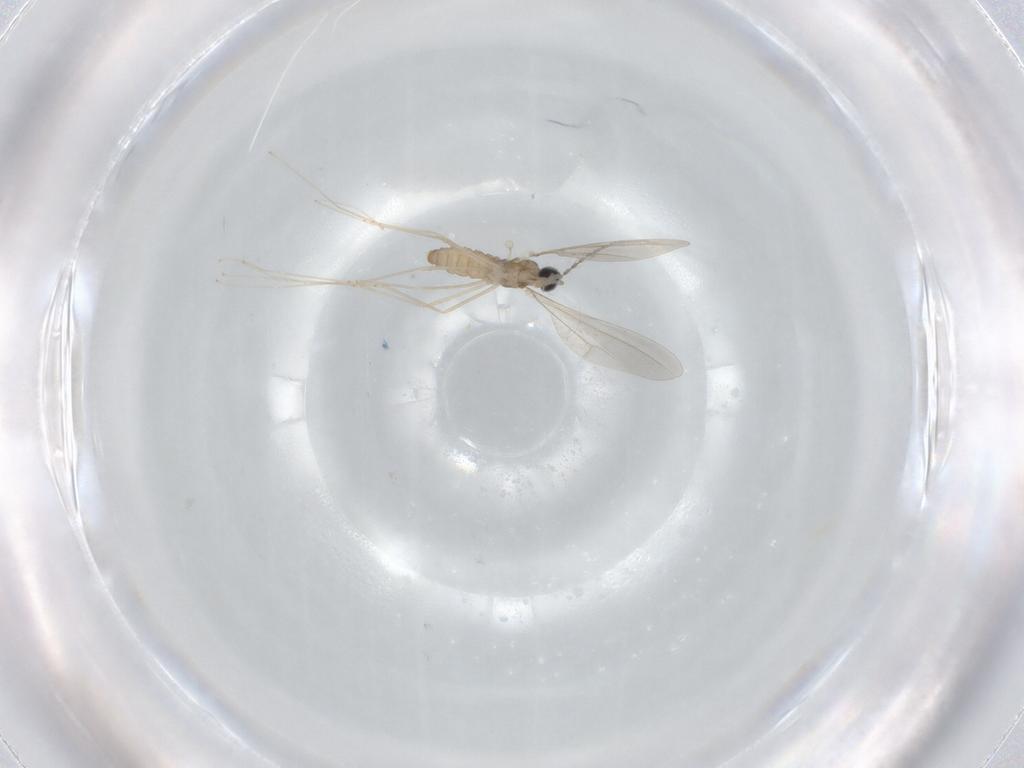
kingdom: Animalia
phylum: Arthropoda
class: Insecta
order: Diptera
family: Cecidomyiidae
